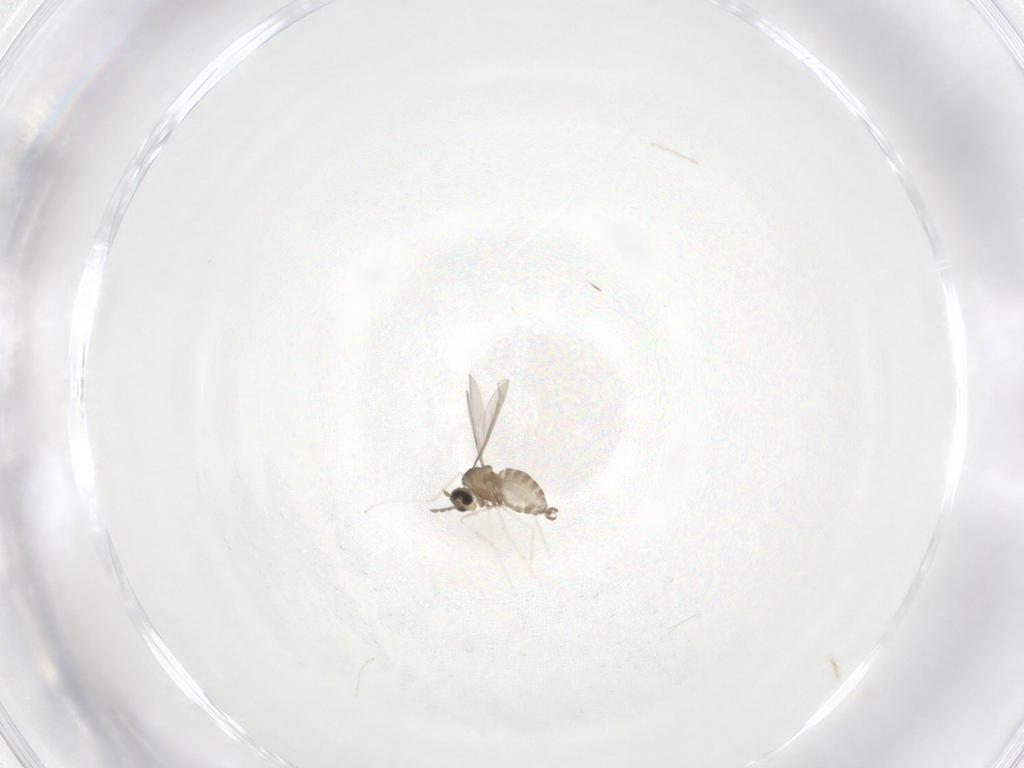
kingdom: Animalia
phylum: Arthropoda
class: Insecta
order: Diptera
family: Cecidomyiidae
